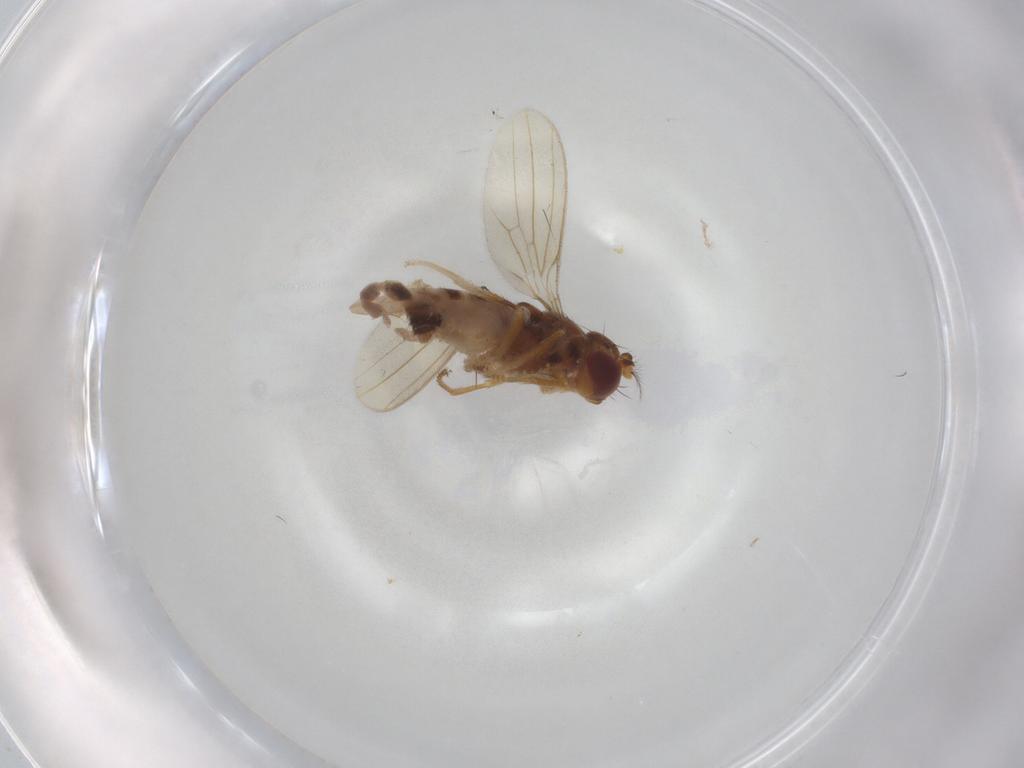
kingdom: Animalia
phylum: Arthropoda
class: Insecta
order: Diptera
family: Periscelididae
